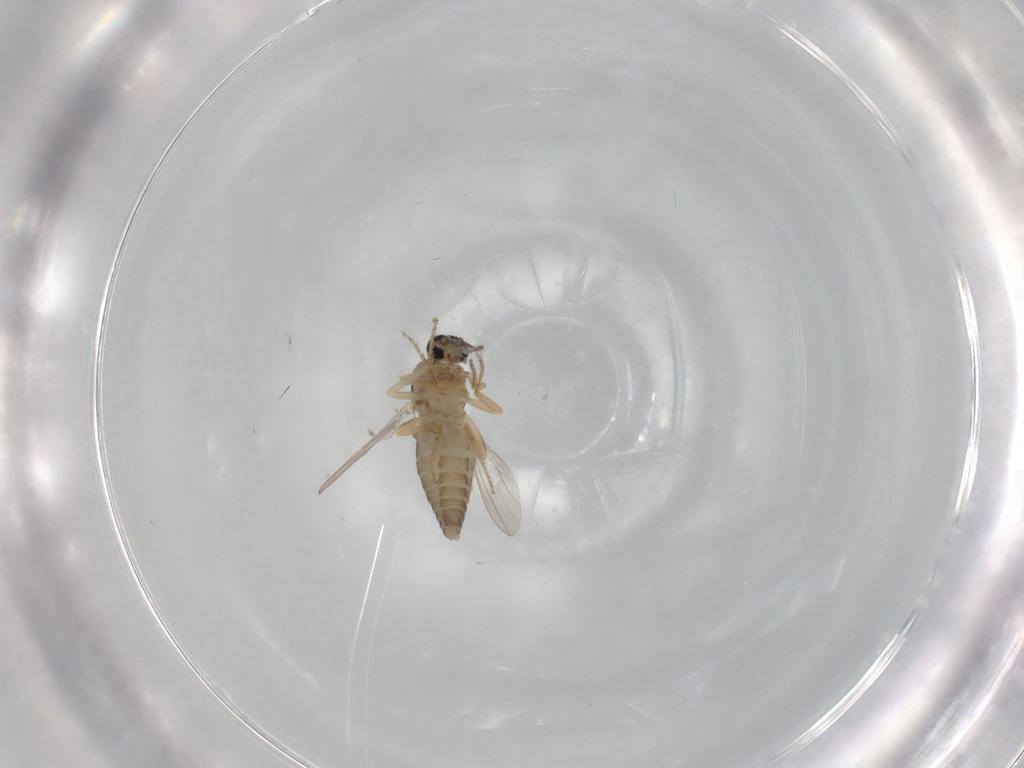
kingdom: Animalia
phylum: Arthropoda
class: Insecta
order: Diptera
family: Ceratopogonidae
